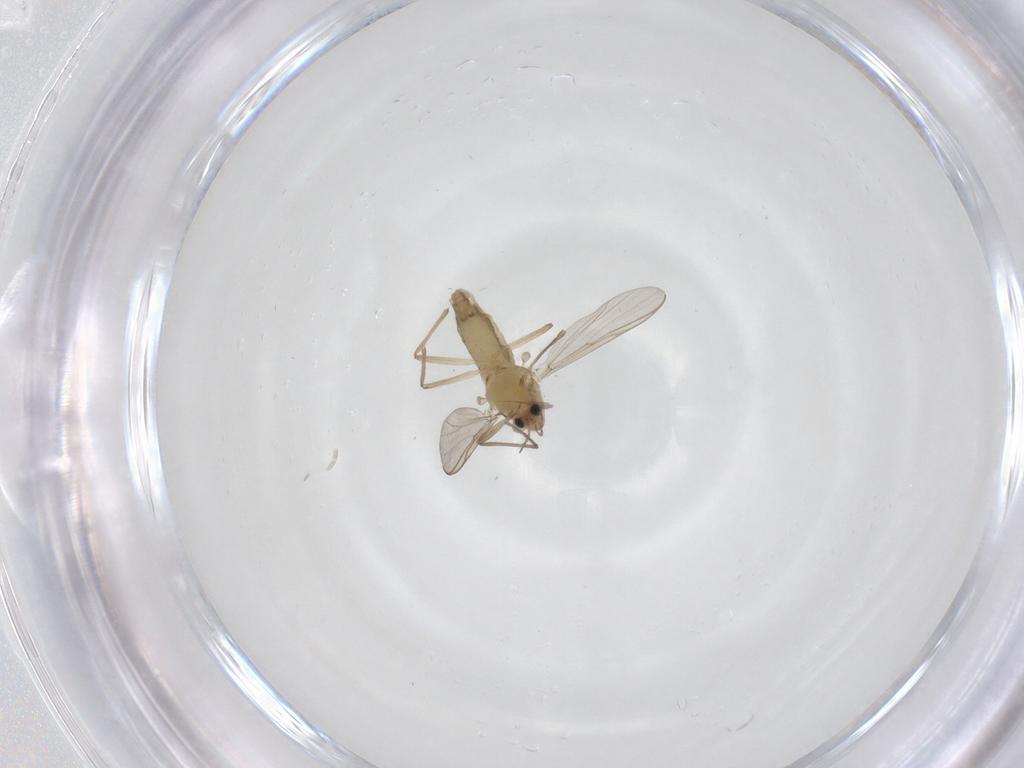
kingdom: Animalia
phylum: Arthropoda
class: Insecta
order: Diptera
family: Chironomidae
